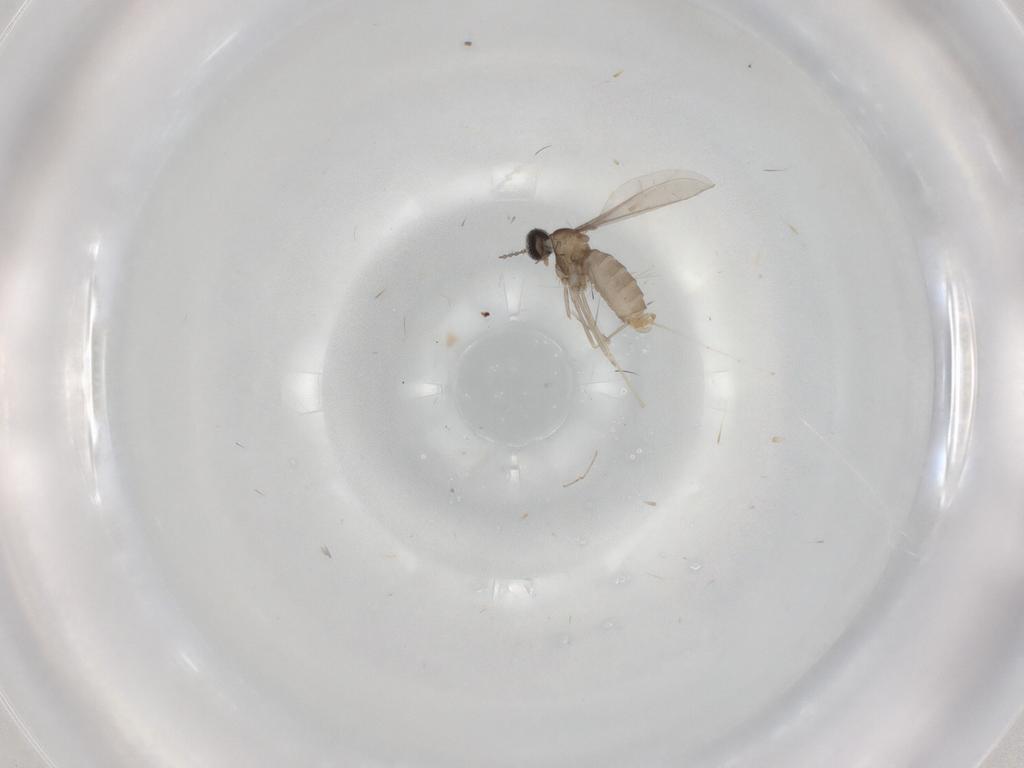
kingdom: Animalia
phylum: Arthropoda
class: Insecta
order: Diptera
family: Cecidomyiidae
